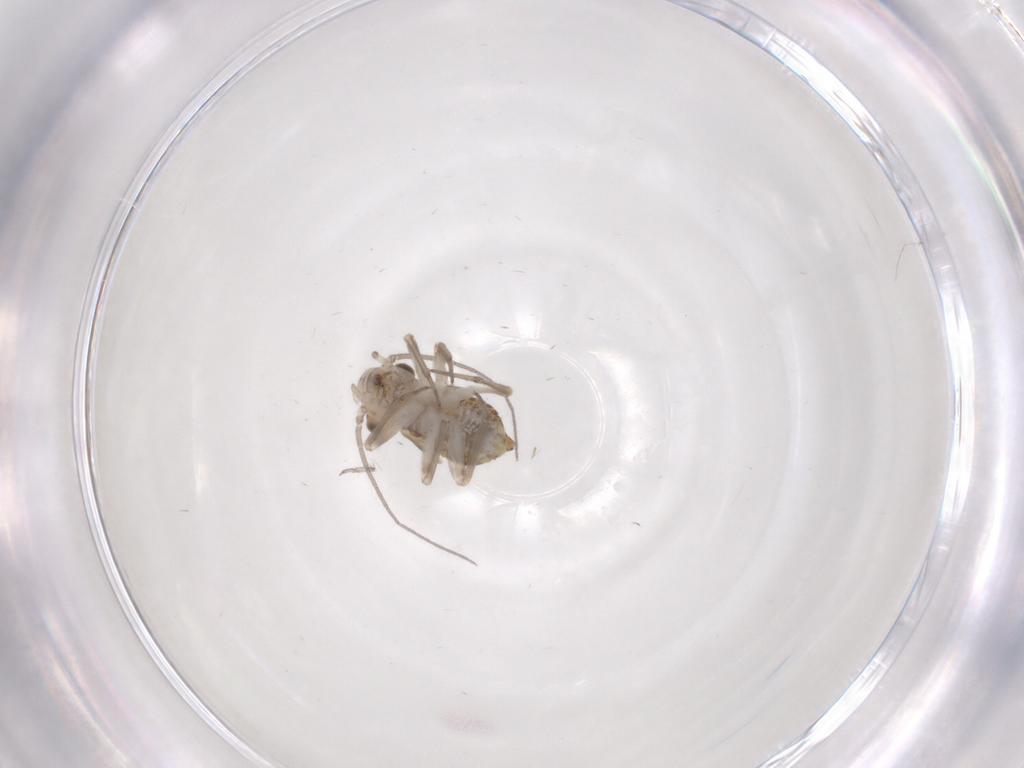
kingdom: Animalia
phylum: Arthropoda
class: Insecta
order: Psocodea
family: Myopsocidae
